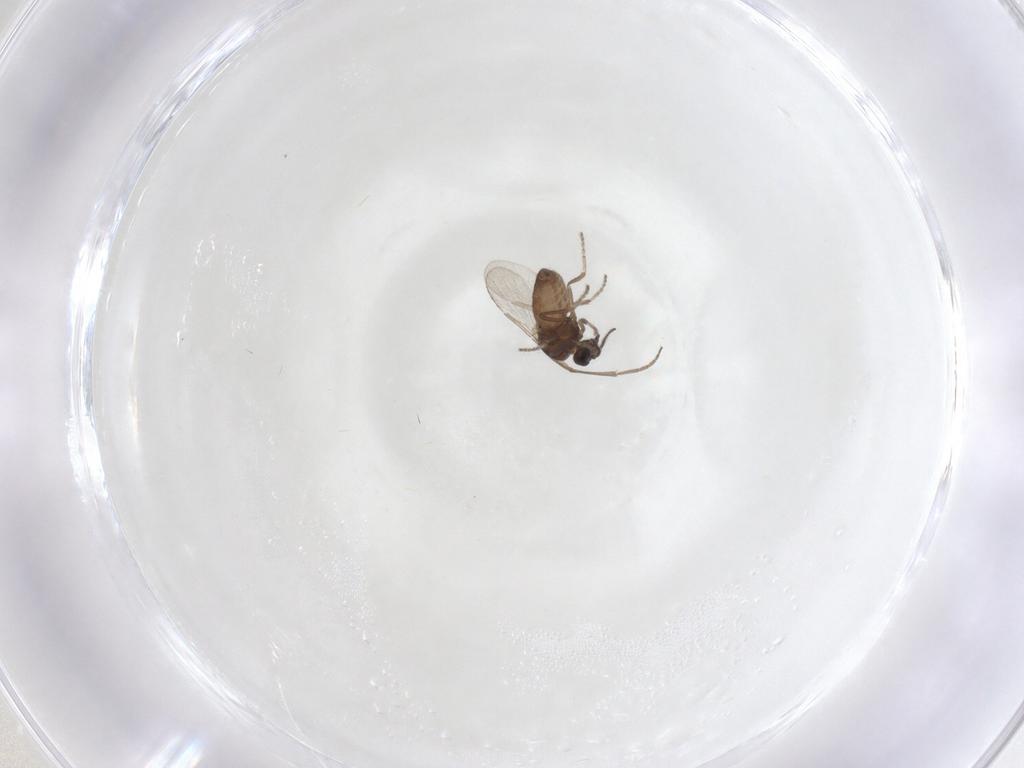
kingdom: Animalia
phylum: Arthropoda
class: Insecta
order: Diptera
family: Ceratopogonidae
